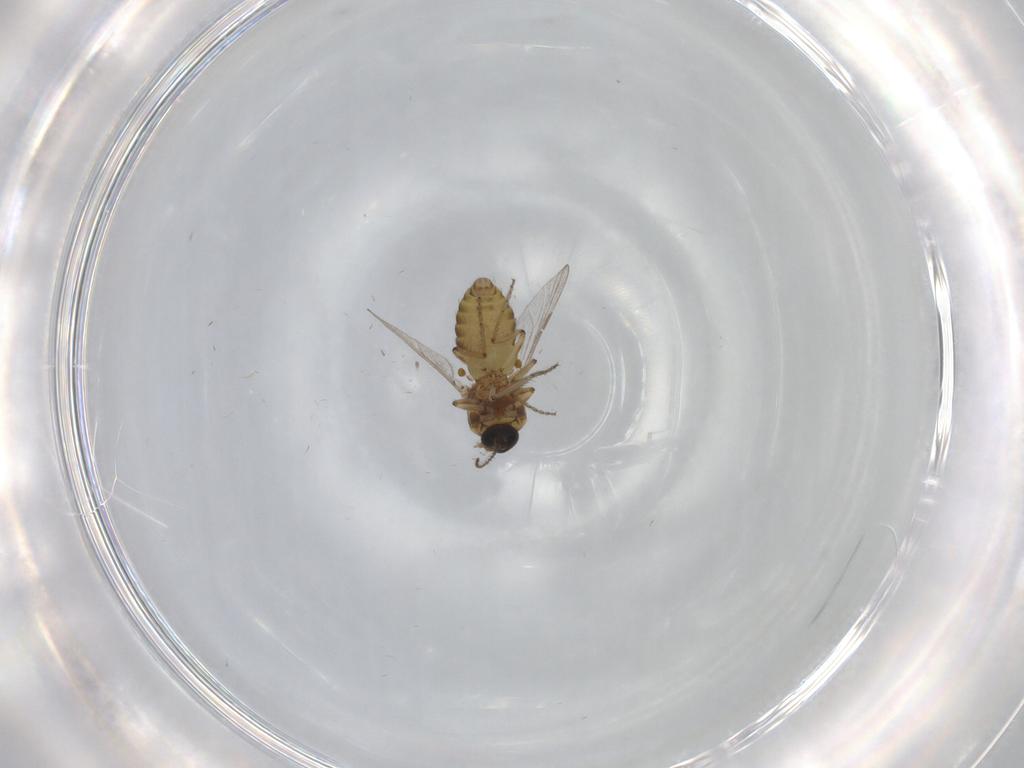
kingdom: Animalia
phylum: Arthropoda
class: Insecta
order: Diptera
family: Ceratopogonidae
